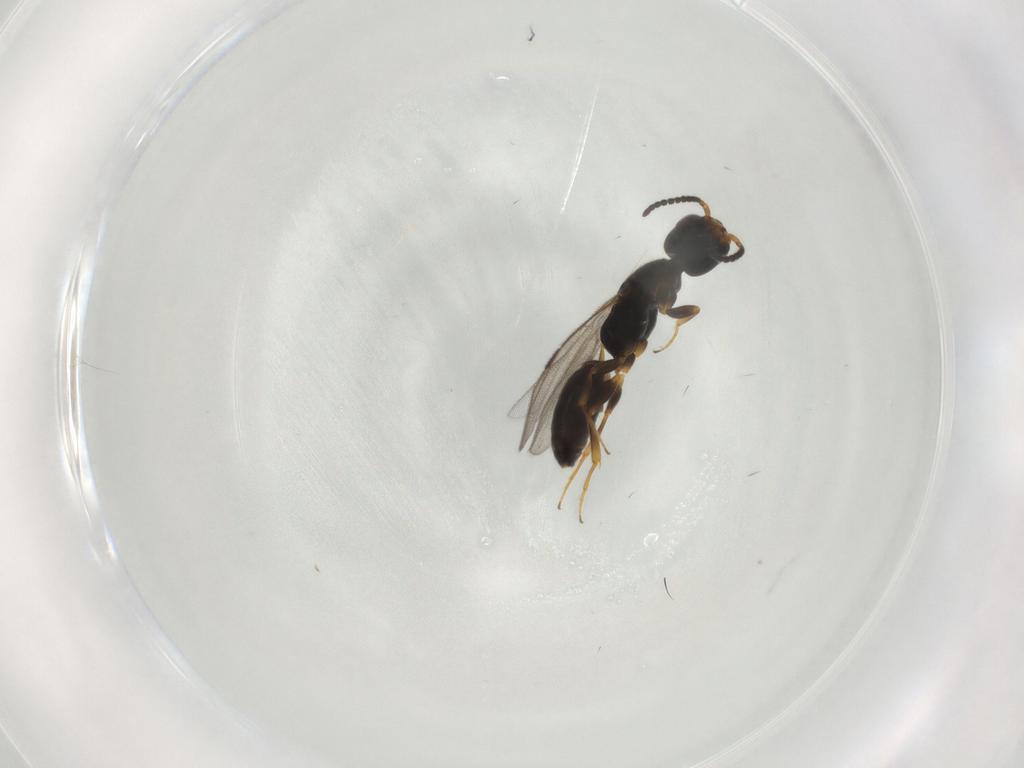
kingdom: Animalia
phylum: Arthropoda
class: Insecta
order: Hymenoptera
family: Bethylidae
